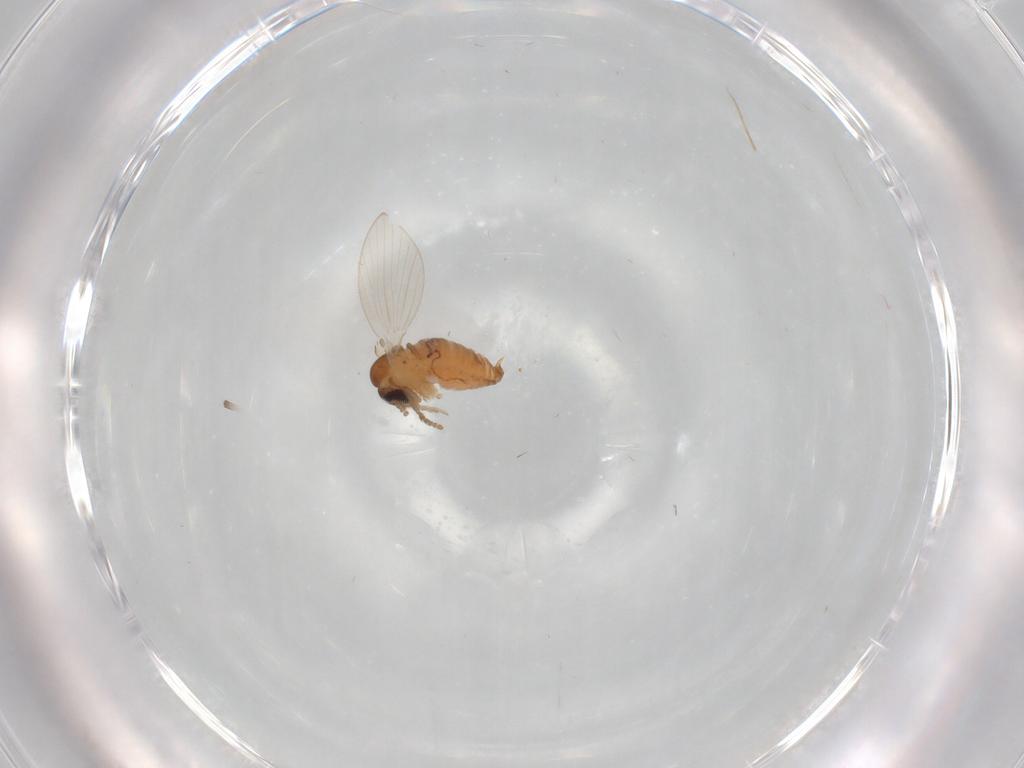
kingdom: Animalia
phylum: Arthropoda
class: Insecta
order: Diptera
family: Psychodidae
